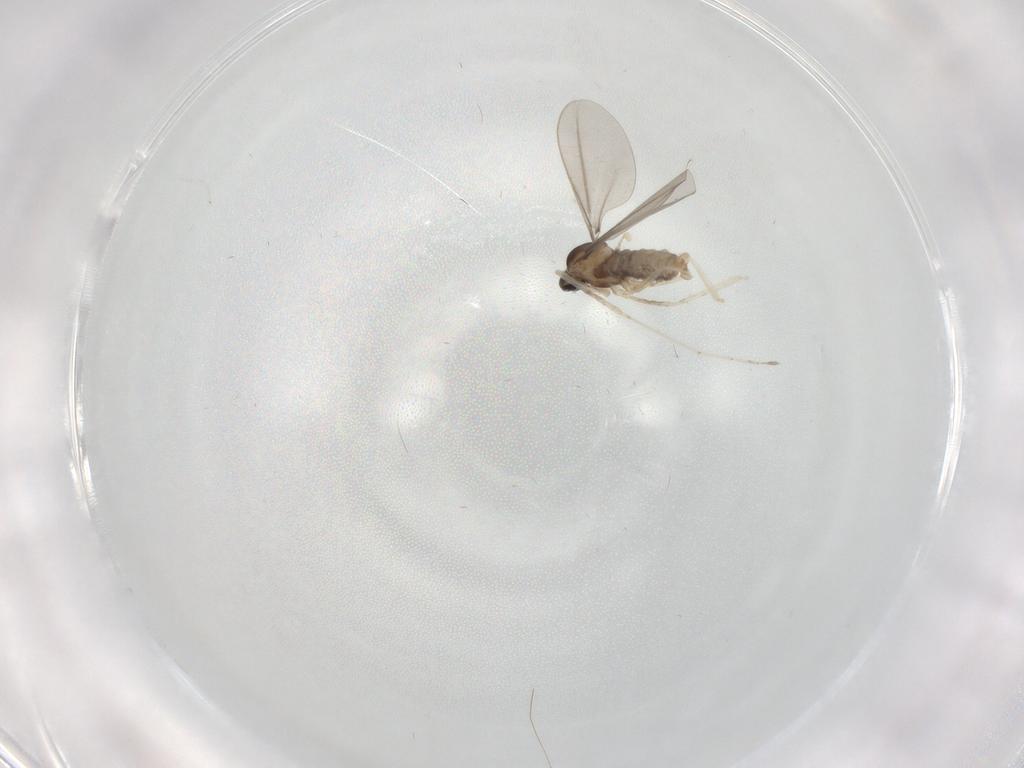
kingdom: Animalia
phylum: Arthropoda
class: Insecta
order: Diptera
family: Cecidomyiidae
